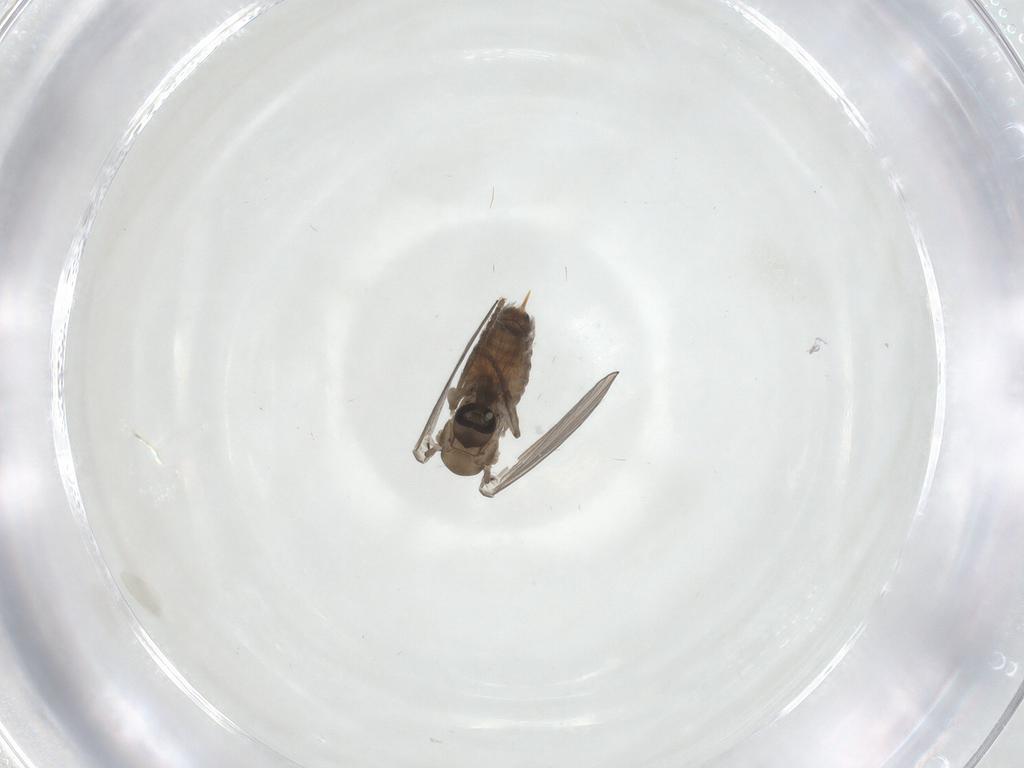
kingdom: Animalia
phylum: Arthropoda
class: Insecta
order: Diptera
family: Psychodidae
